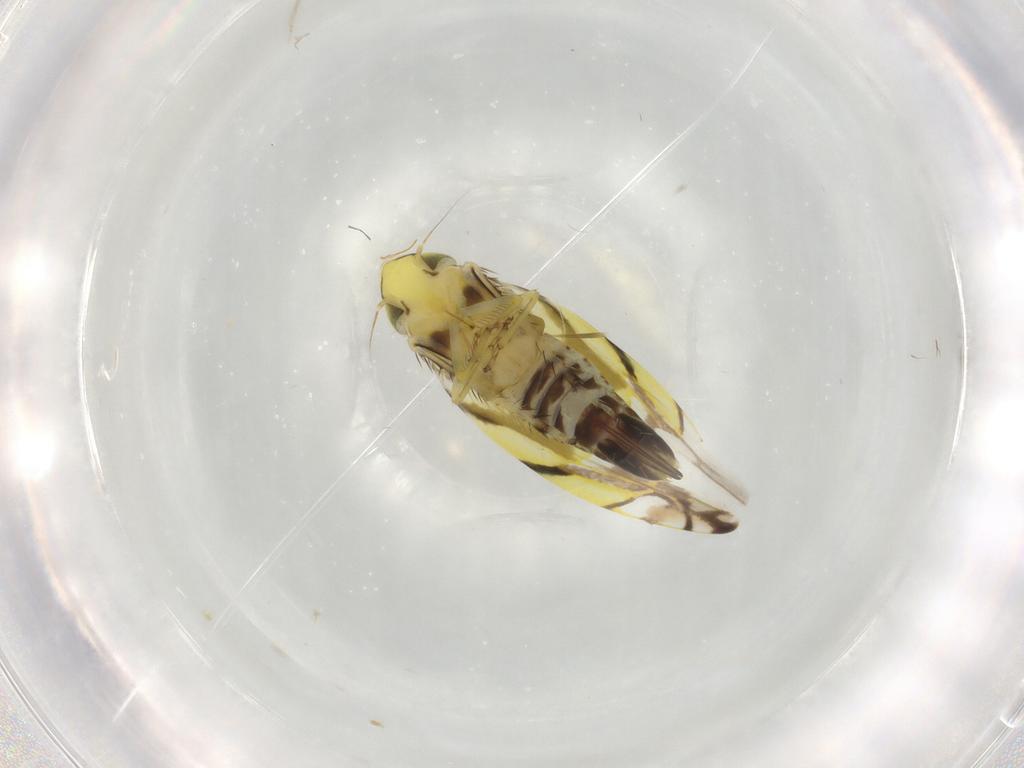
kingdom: Animalia
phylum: Arthropoda
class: Insecta
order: Hemiptera
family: Cicadellidae
